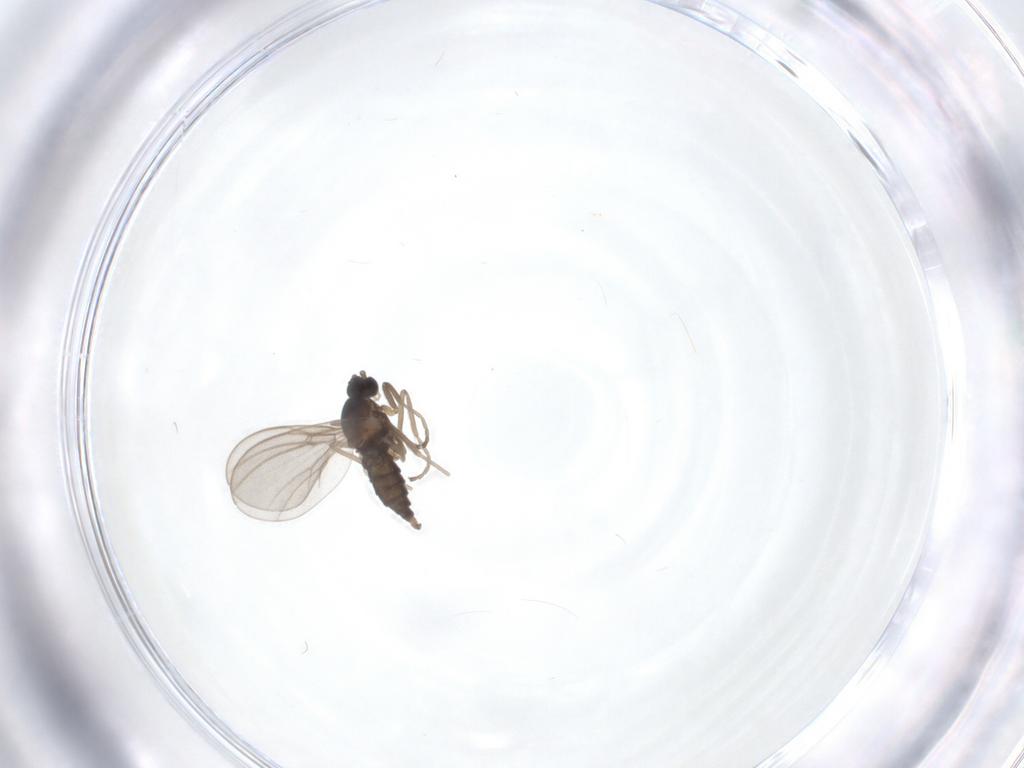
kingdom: Animalia
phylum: Arthropoda
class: Insecta
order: Diptera
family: Cecidomyiidae
